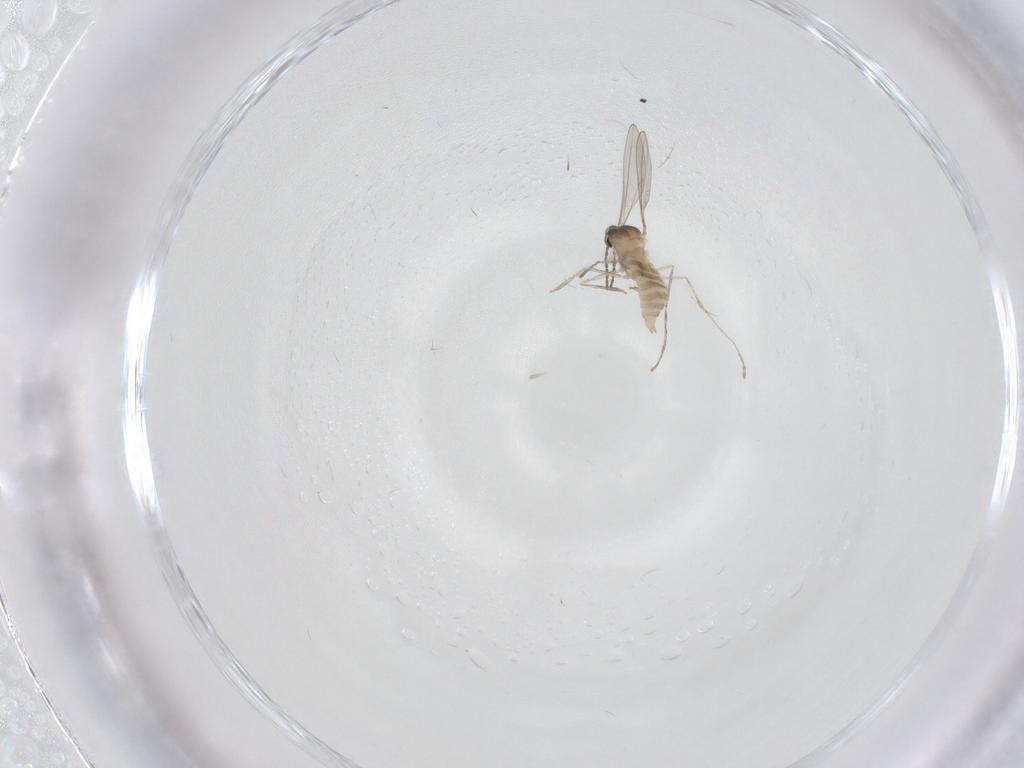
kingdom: Animalia
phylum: Arthropoda
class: Insecta
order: Diptera
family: Cecidomyiidae
